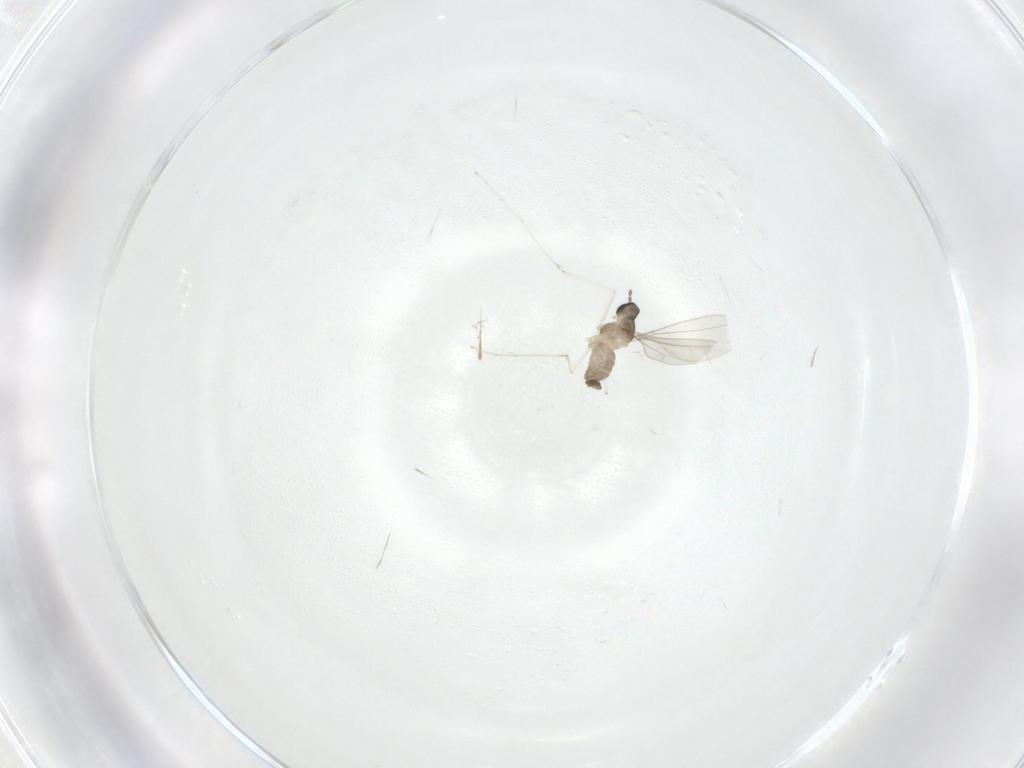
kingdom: Animalia
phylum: Arthropoda
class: Insecta
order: Diptera
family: Cecidomyiidae
